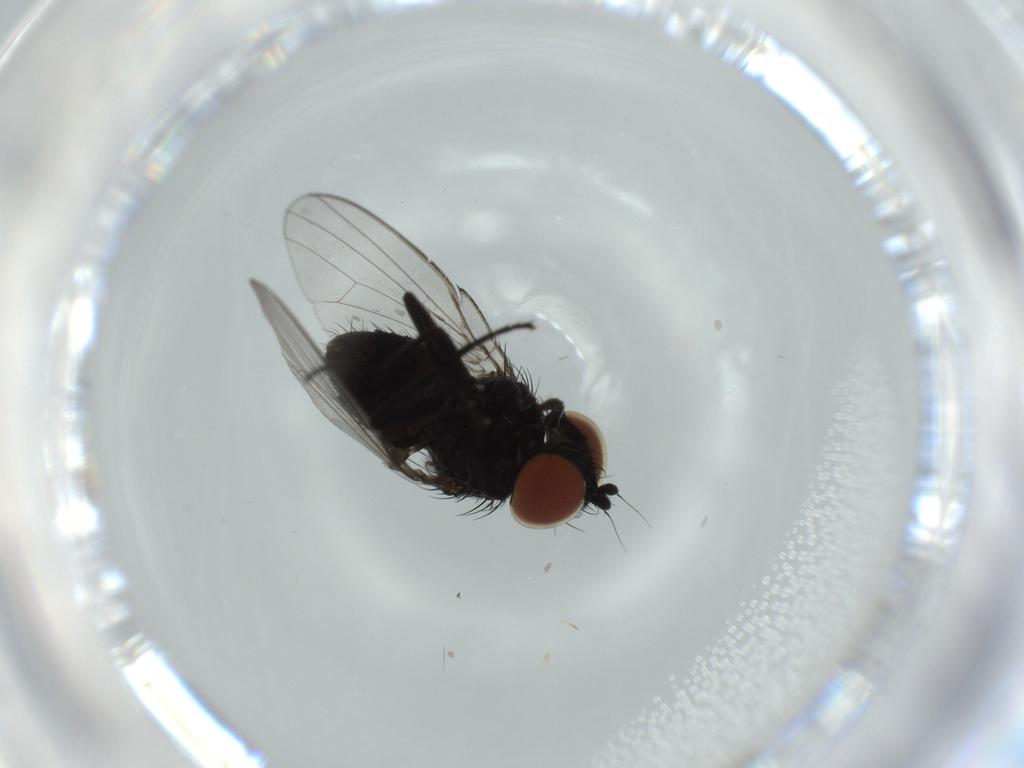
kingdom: Animalia
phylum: Arthropoda
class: Insecta
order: Diptera
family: Milichiidae
